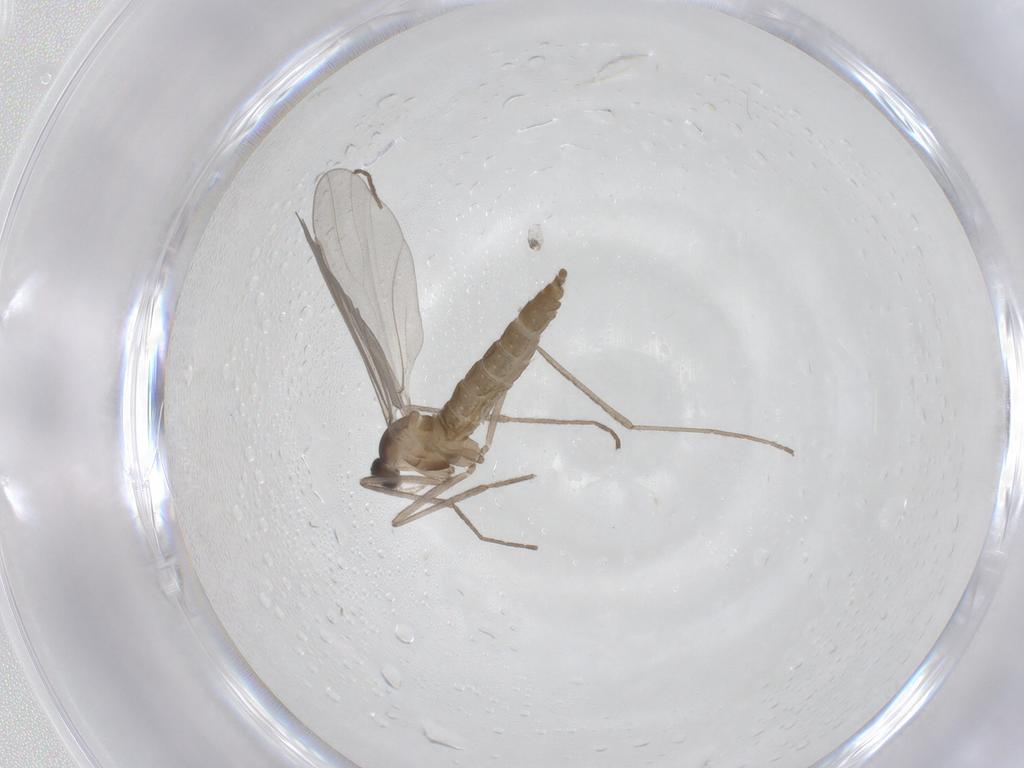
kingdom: Animalia
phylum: Arthropoda
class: Insecta
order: Diptera
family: Cecidomyiidae
